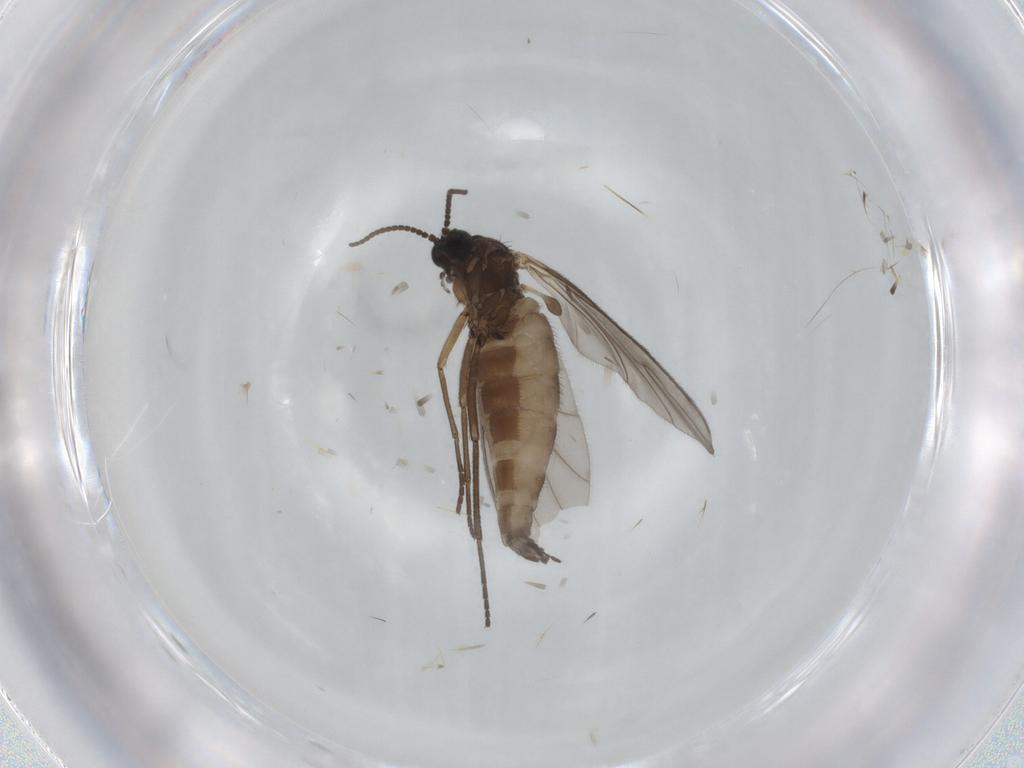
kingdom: Animalia
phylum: Arthropoda
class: Insecta
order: Diptera
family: Sciaridae
